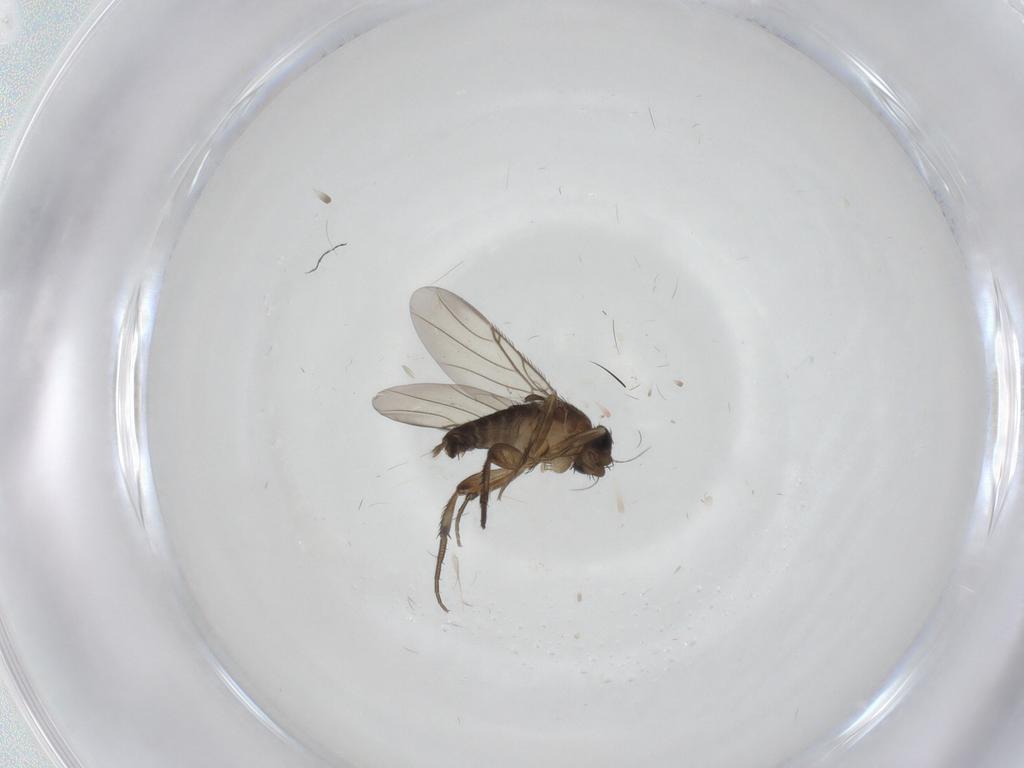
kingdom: Animalia
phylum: Arthropoda
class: Insecta
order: Diptera
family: Phoridae
